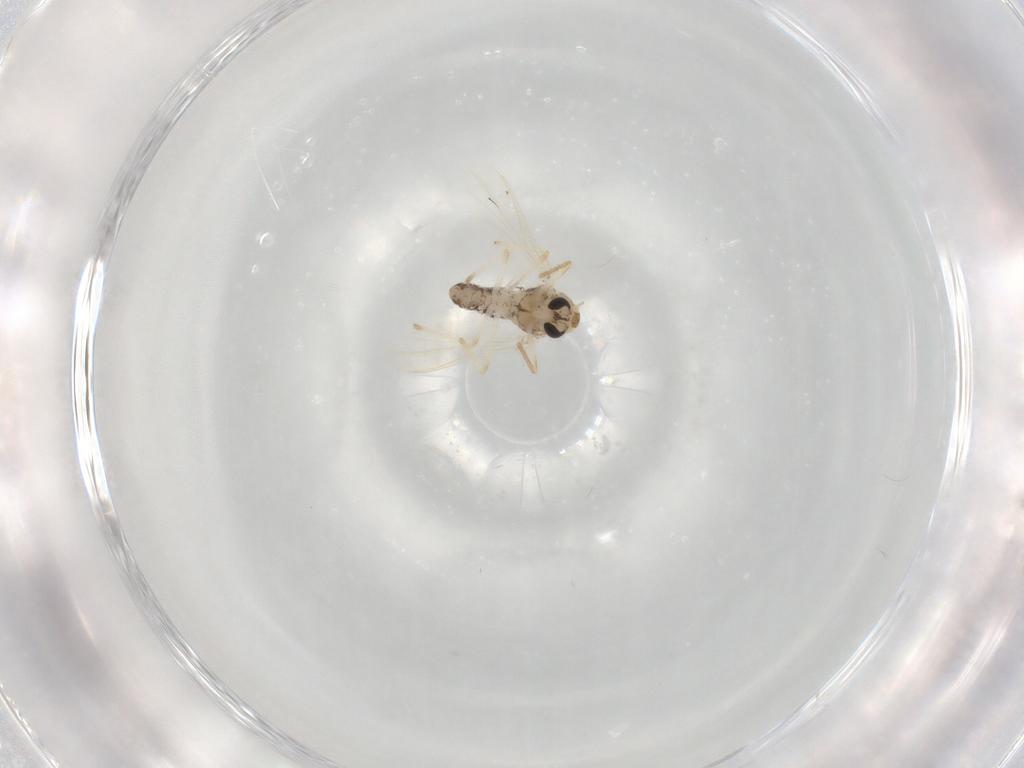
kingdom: Animalia
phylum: Arthropoda
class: Insecta
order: Diptera
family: Chironomidae
